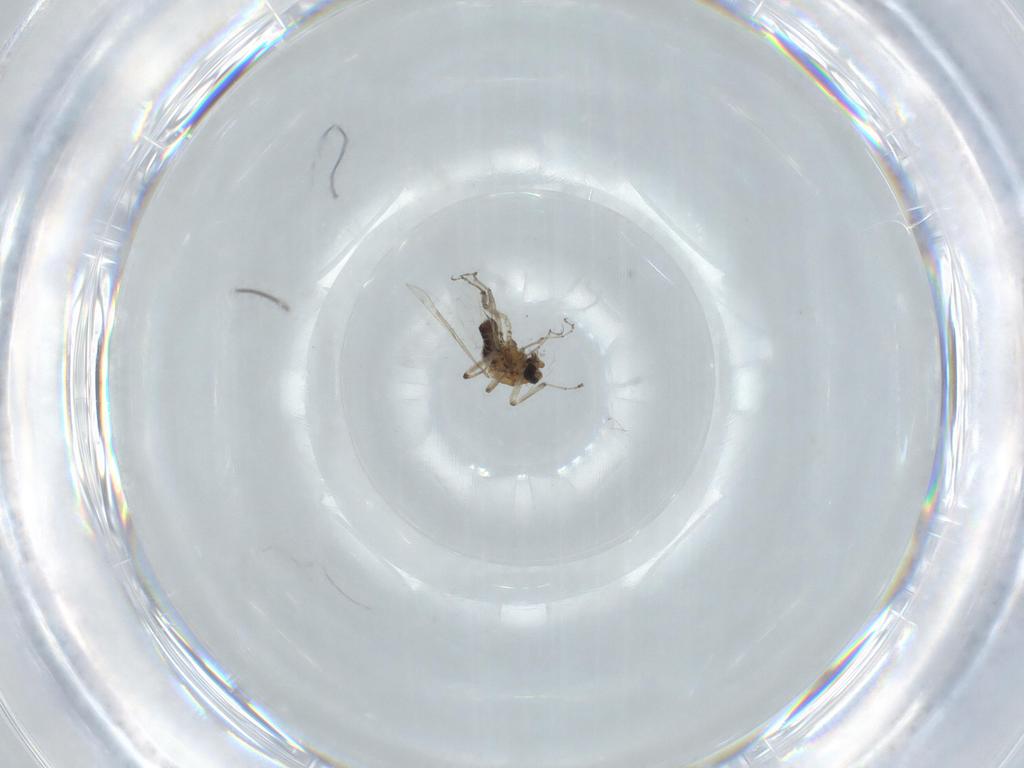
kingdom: Animalia
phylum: Arthropoda
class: Insecta
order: Diptera
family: Ceratopogonidae
